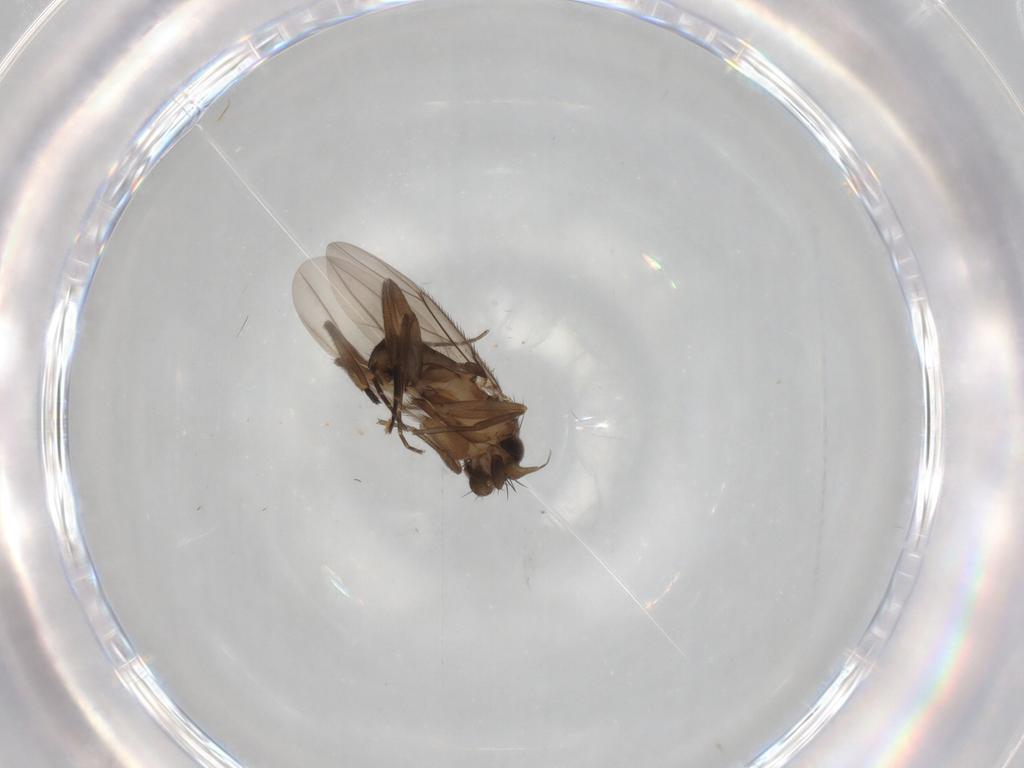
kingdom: Animalia
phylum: Arthropoda
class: Insecta
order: Diptera
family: Phoridae
